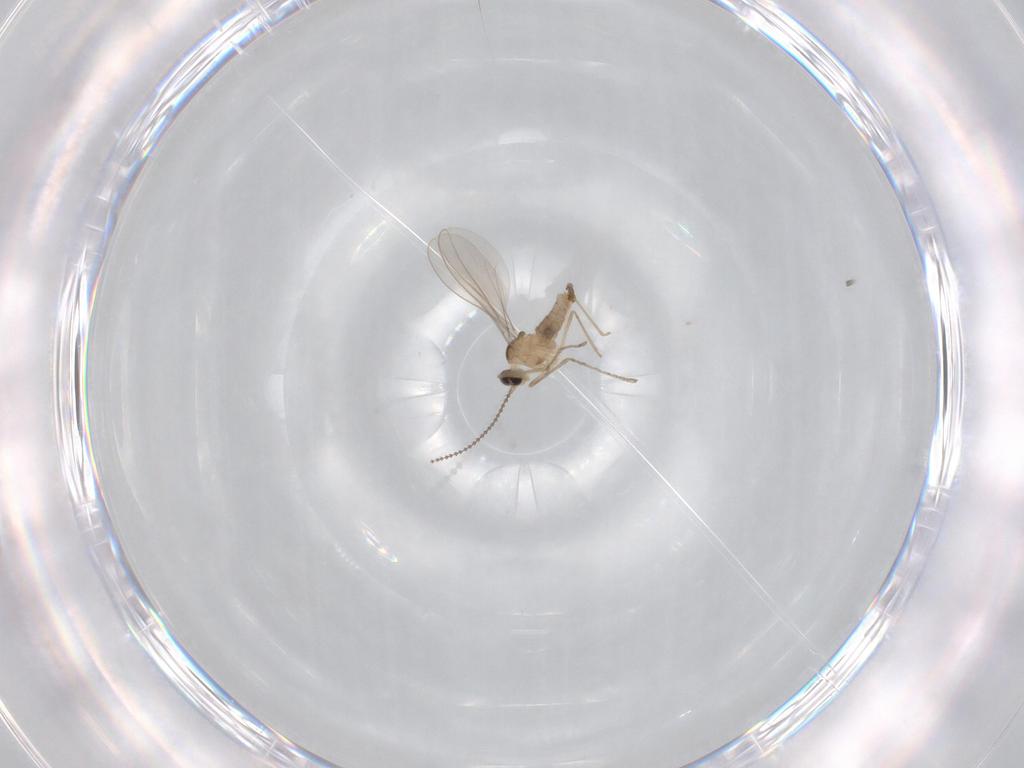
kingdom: Animalia
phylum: Arthropoda
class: Insecta
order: Diptera
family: Cecidomyiidae
